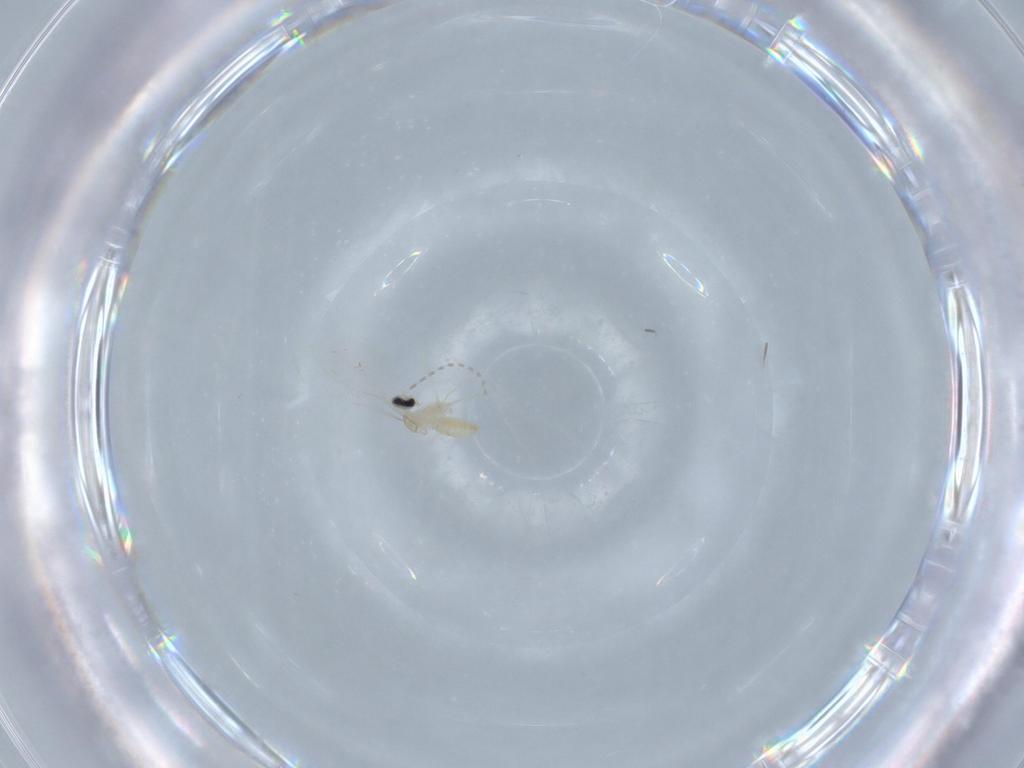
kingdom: Animalia
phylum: Arthropoda
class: Insecta
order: Diptera
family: Cecidomyiidae
